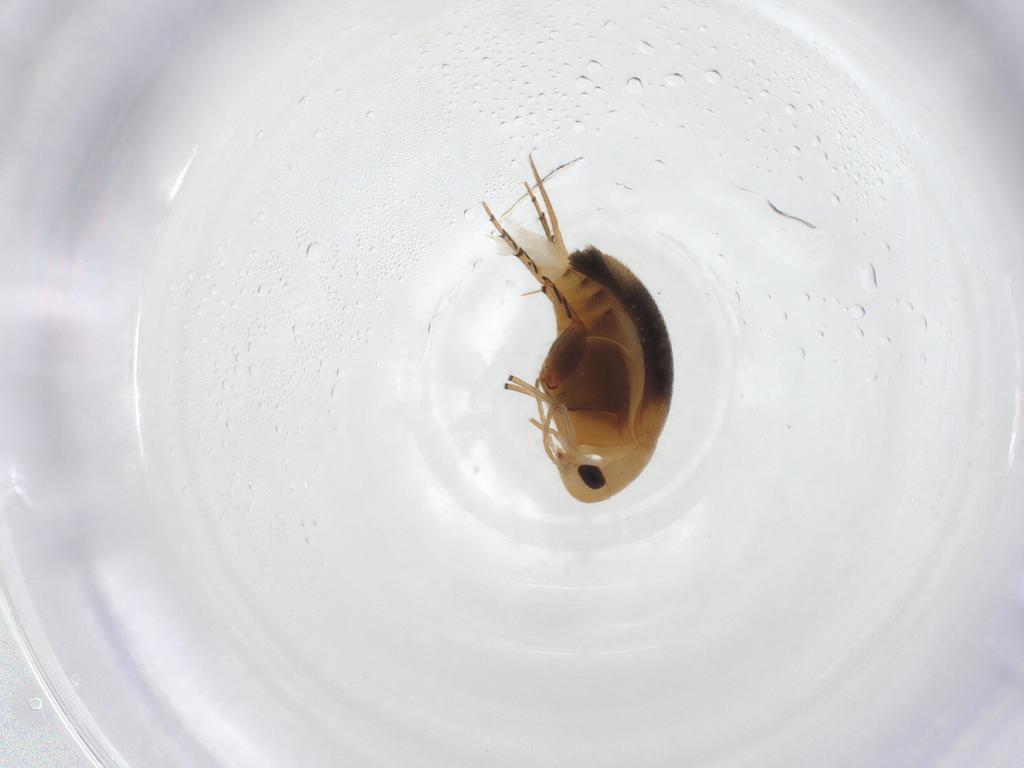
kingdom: Animalia
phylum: Arthropoda
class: Insecta
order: Coleoptera
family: Mordellidae
